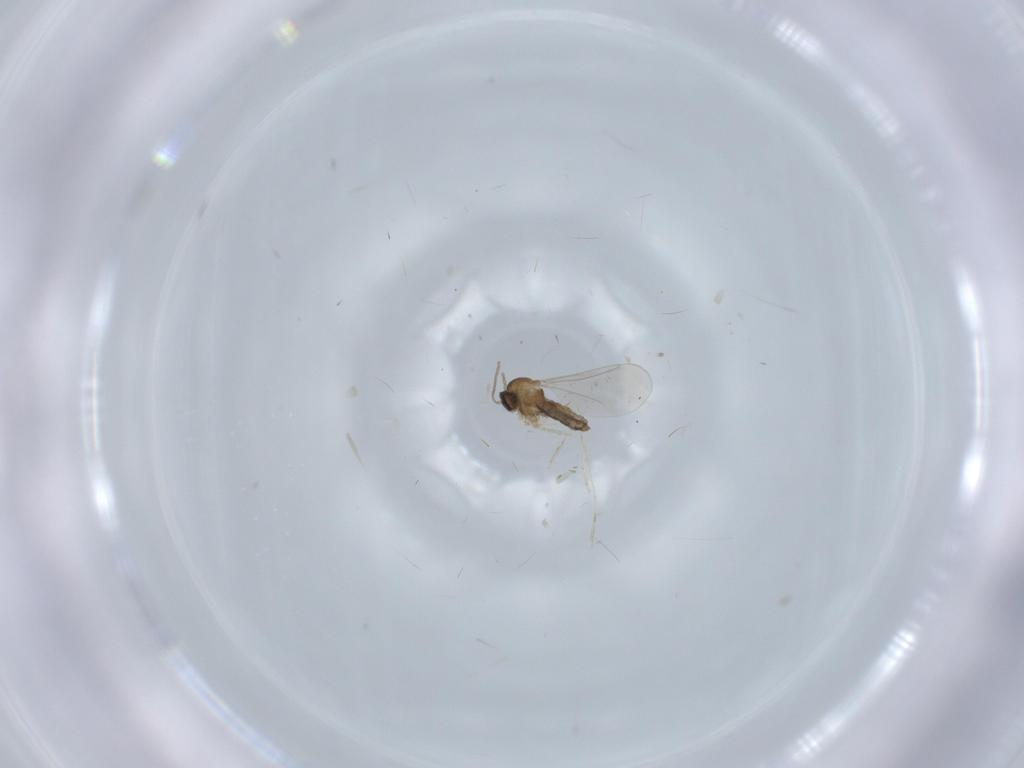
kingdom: Animalia
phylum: Arthropoda
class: Insecta
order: Diptera
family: Cecidomyiidae
